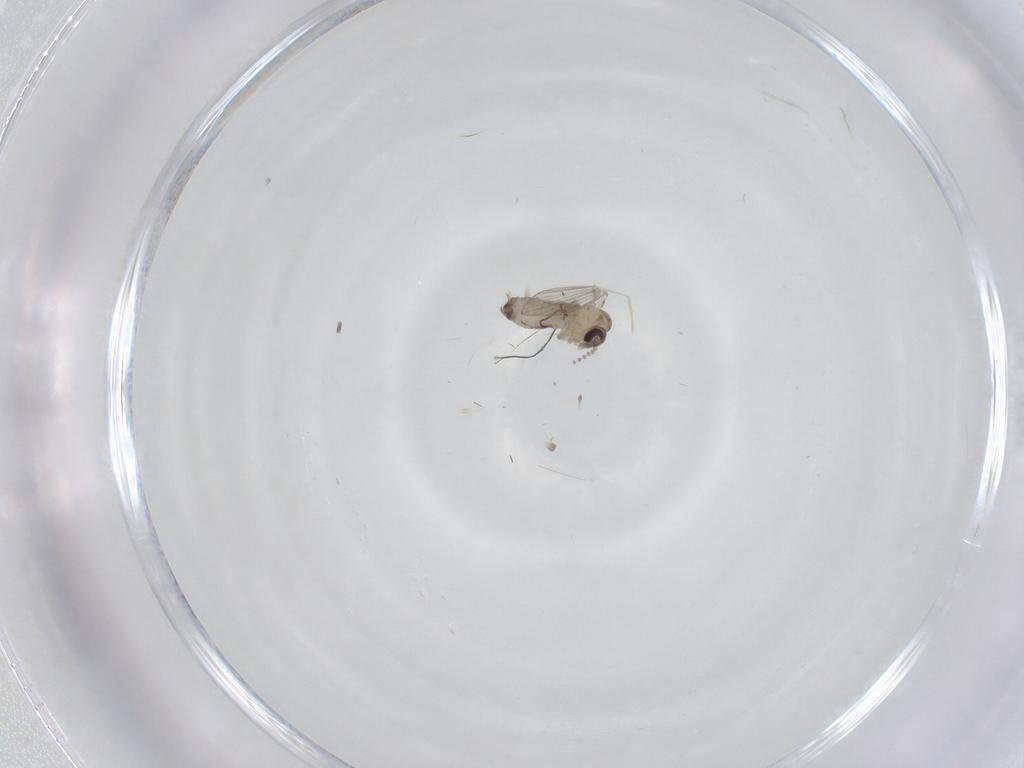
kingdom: Animalia
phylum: Arthropoda
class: Insecta
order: Diptera
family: Psychodidae
